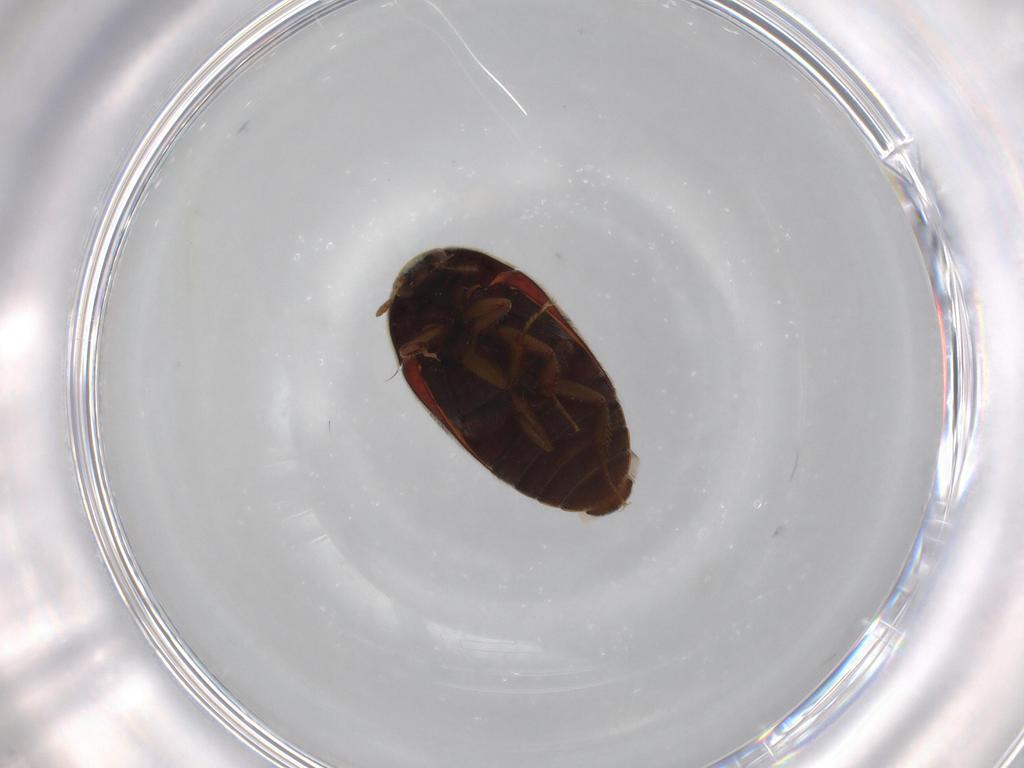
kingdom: Animalia
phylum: Arthropoda
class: Insecta
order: Coleoptera
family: Dermestidae
